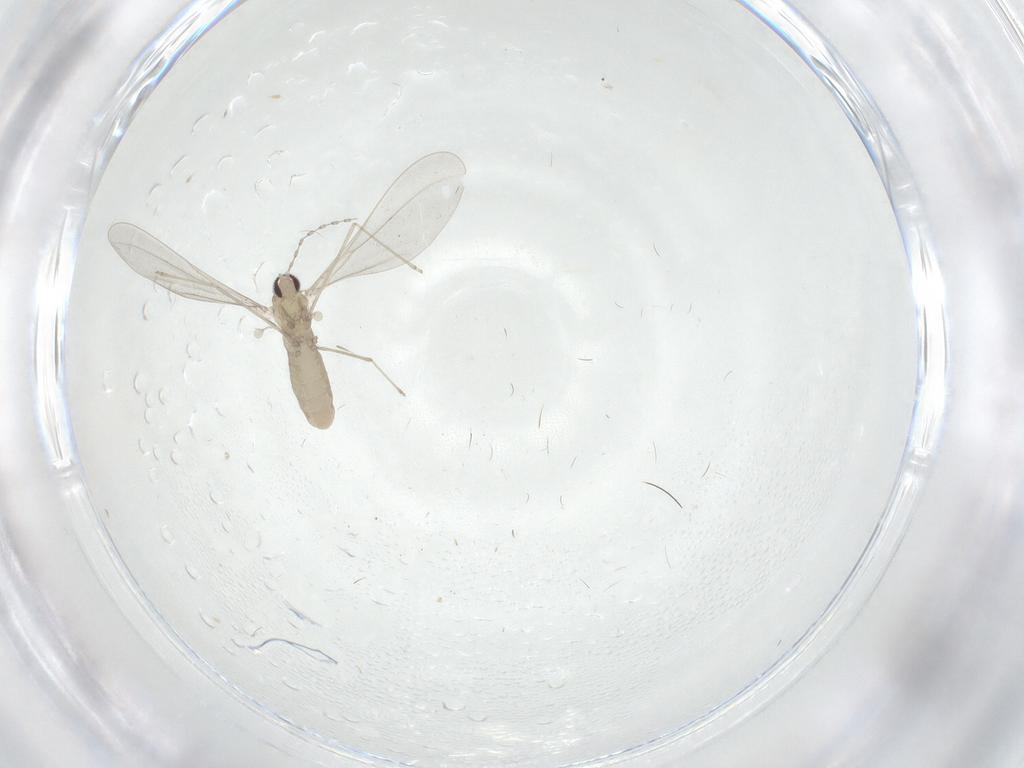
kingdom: Animalia
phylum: Arthropoda
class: Insecta
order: Diptera
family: Cecidomyiidae
